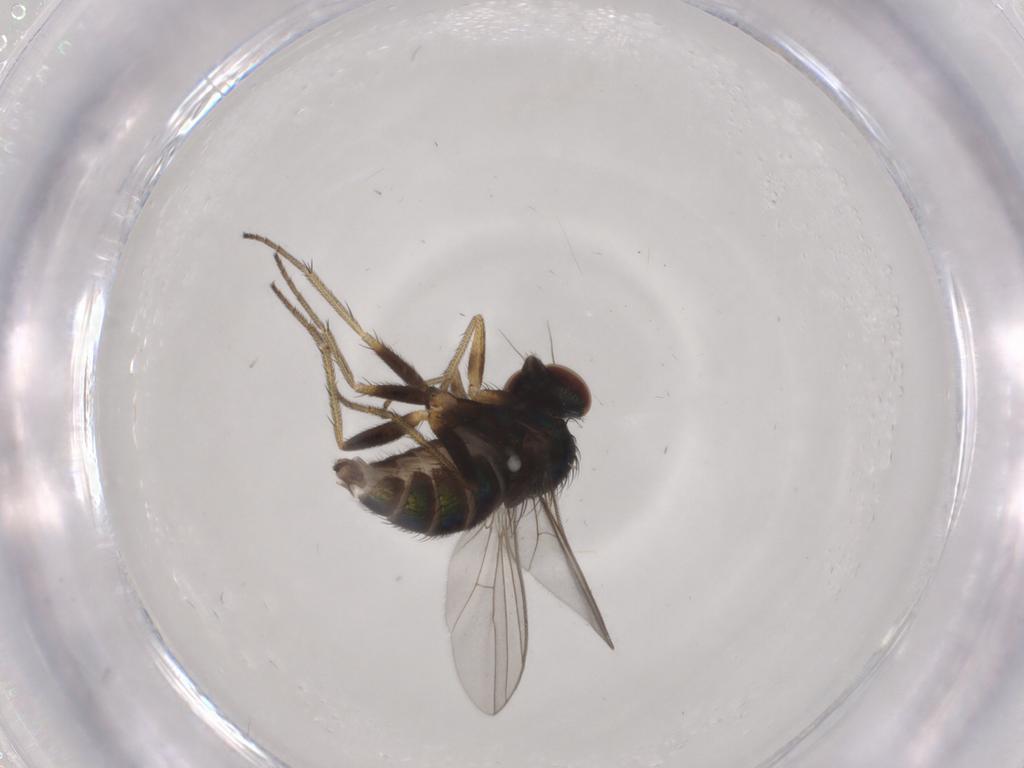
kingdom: Animalia
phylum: Arthropoda
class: Insecta
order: Diptera
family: Dolichopodidae
